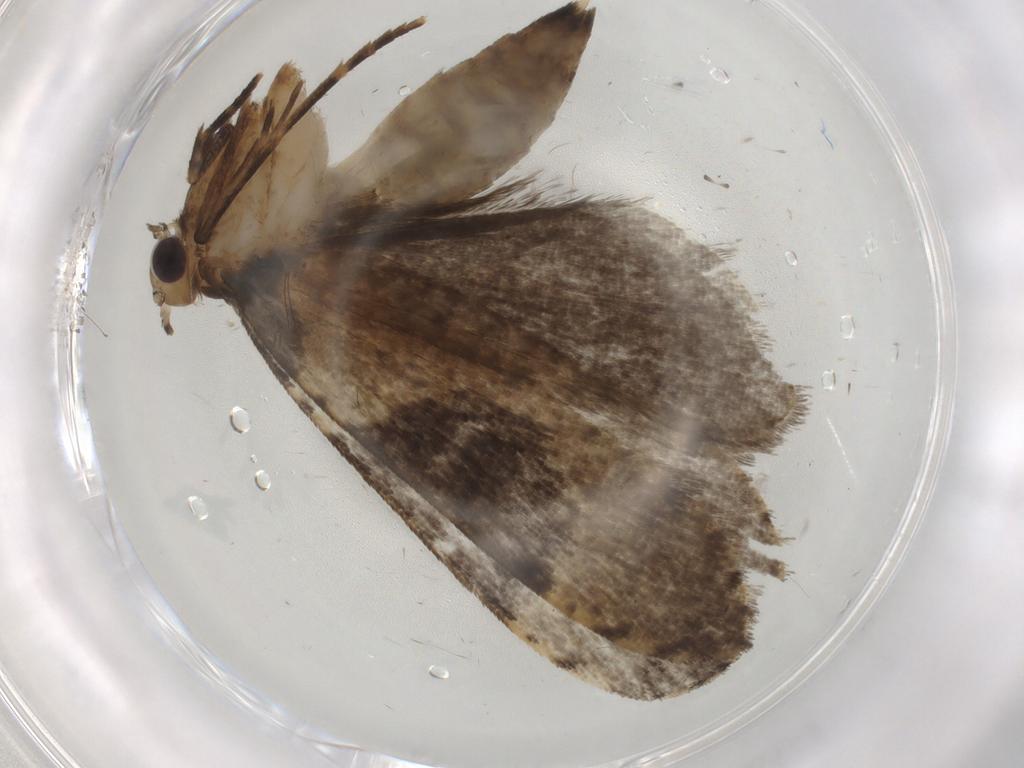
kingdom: Animalia
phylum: Arthropoda
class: Insecta
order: Lepidoptera
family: Tineidae
